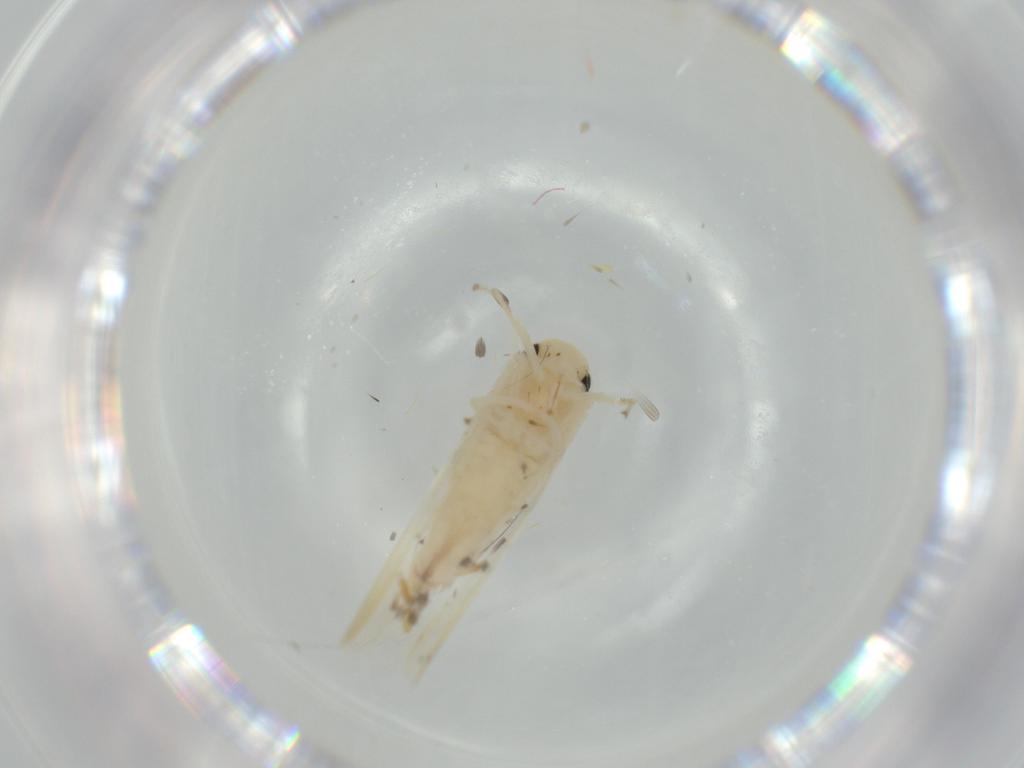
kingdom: Animalia
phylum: Arthropoda
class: Insecta
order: Hemiptera
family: Cicadellidae
